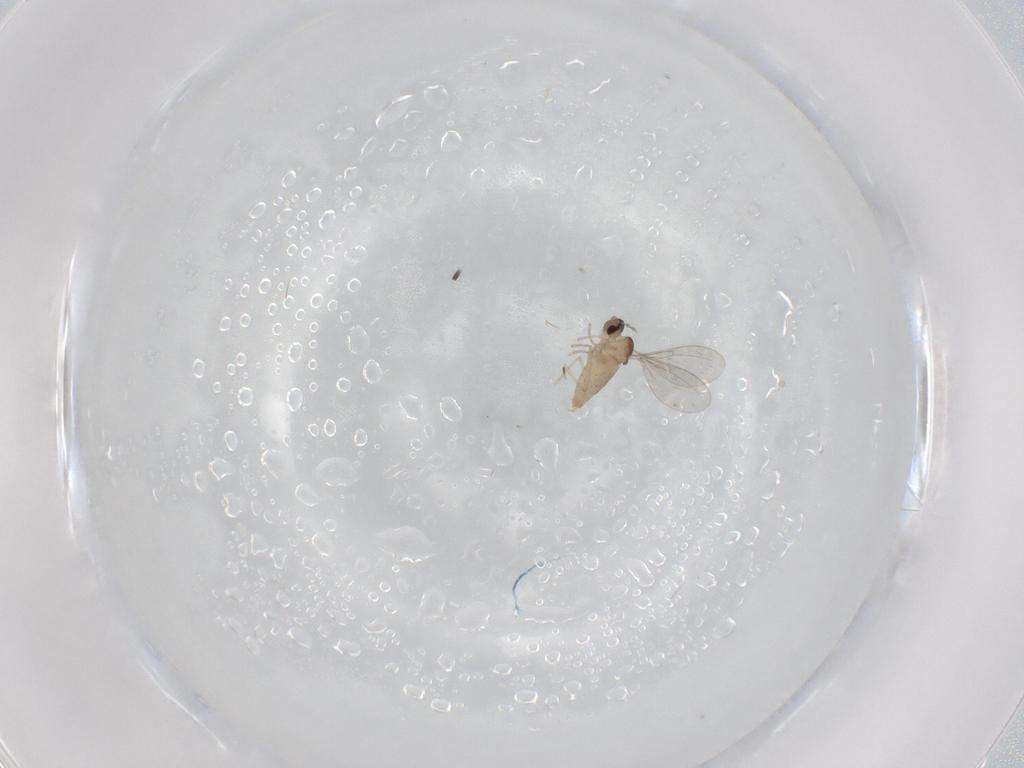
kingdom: Animalia
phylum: Arthropoda
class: Insecta
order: Diptera
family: Cecidomyiidae
